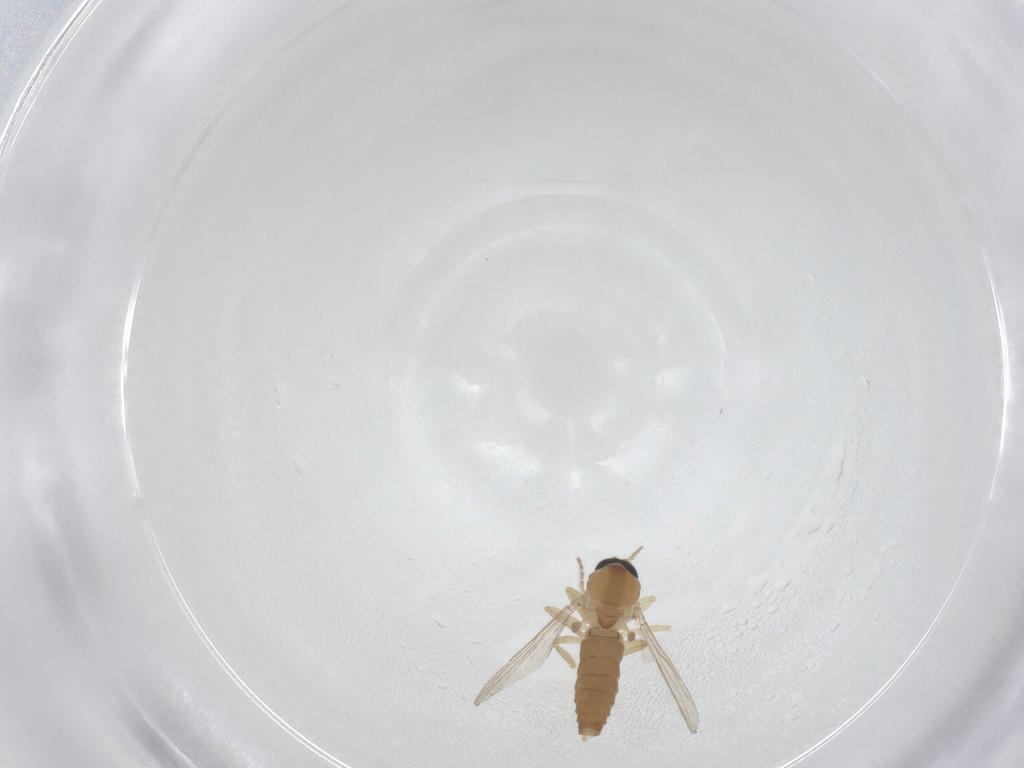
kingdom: Animalia
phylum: Arthropoda
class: Insecta
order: Diptera
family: Ceratopogonidae
